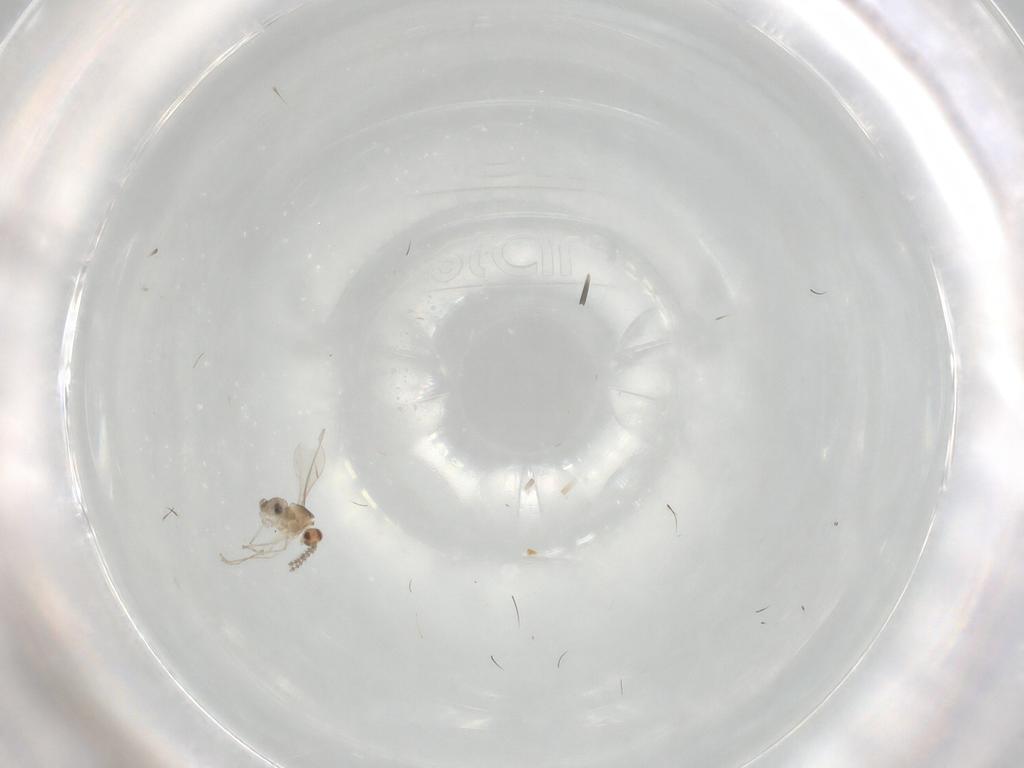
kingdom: Animalia
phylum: Arthropoda
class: Insecta
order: Diptera
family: Cecidomyiidae
